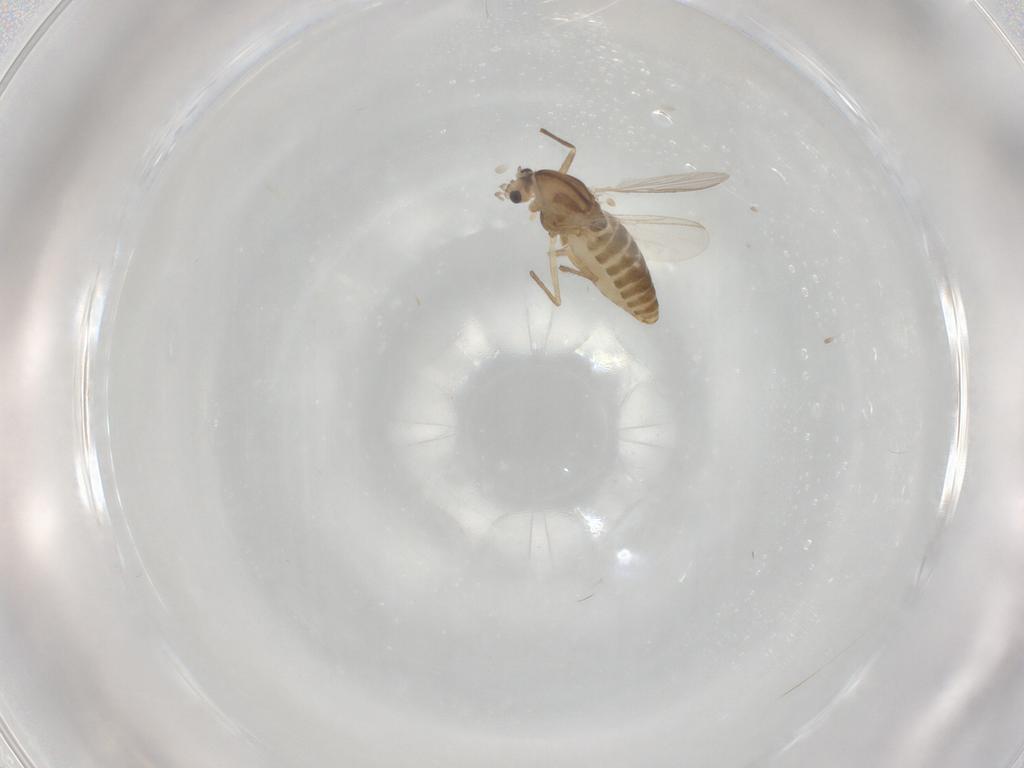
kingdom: Animalia
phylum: Arthropoda
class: Insecta
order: Diptera
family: Chironomidae
